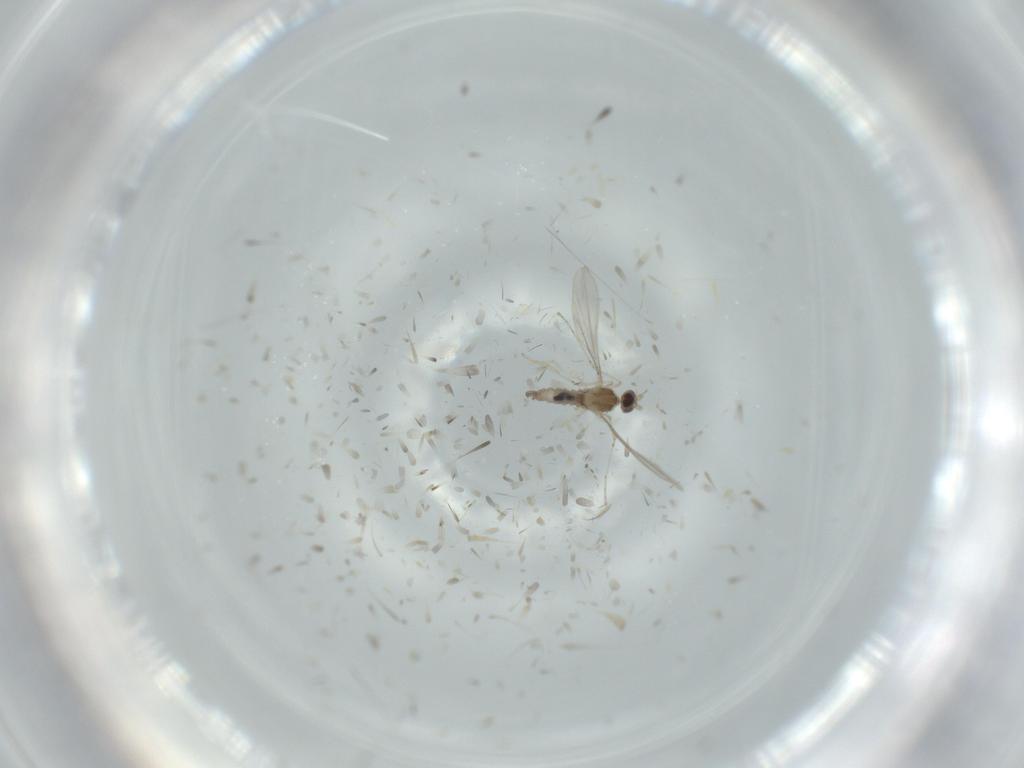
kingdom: Animalia
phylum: Arthropoda
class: Insecta
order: Diptera
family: Cecidomyiidae
